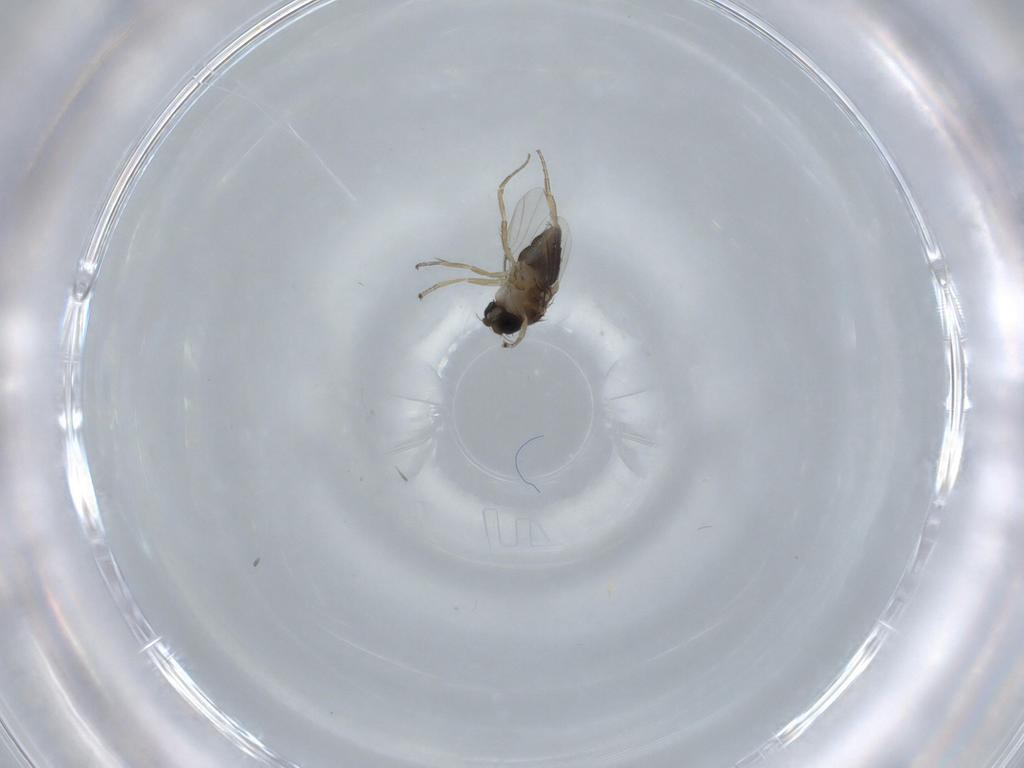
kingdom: Animalia
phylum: Arthropoda
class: Insecta
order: Diptera
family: Phoridae
